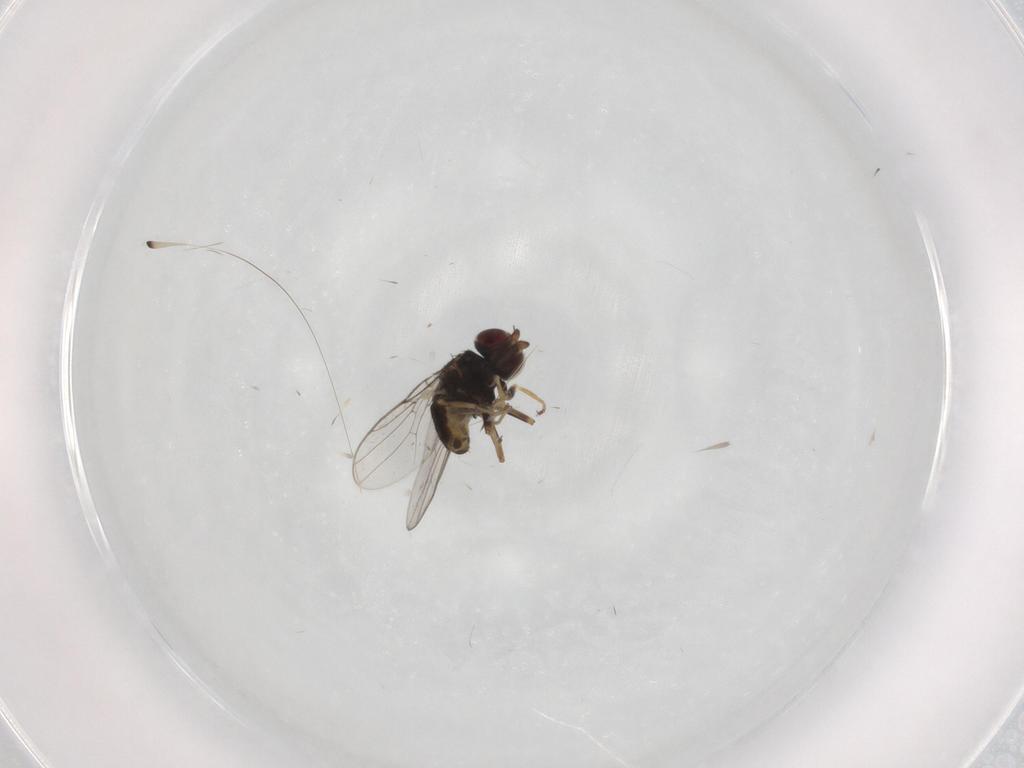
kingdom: Animalia
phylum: Arthropoda
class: Insecta
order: Diptera
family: Chloropidae
